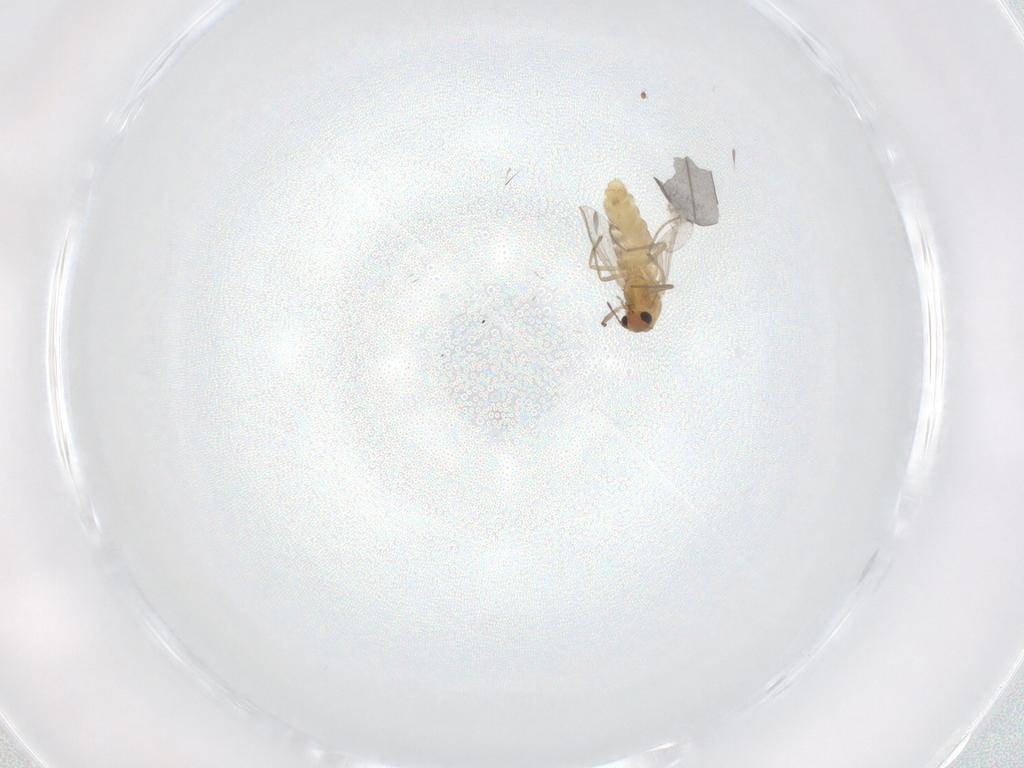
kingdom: Animalia
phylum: Arthropoda
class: Insecta
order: Diptera
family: Chironomidae
